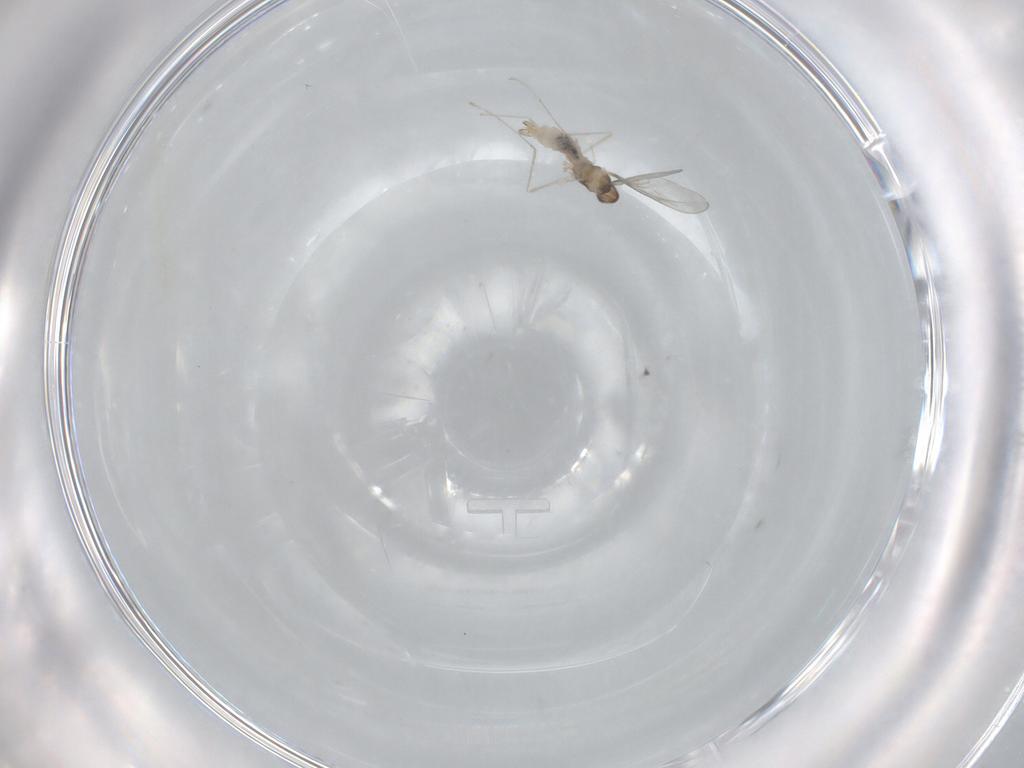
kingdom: Animalia
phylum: Arthropoda
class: Insecta
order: Diptera
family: Cecidomyiidae
